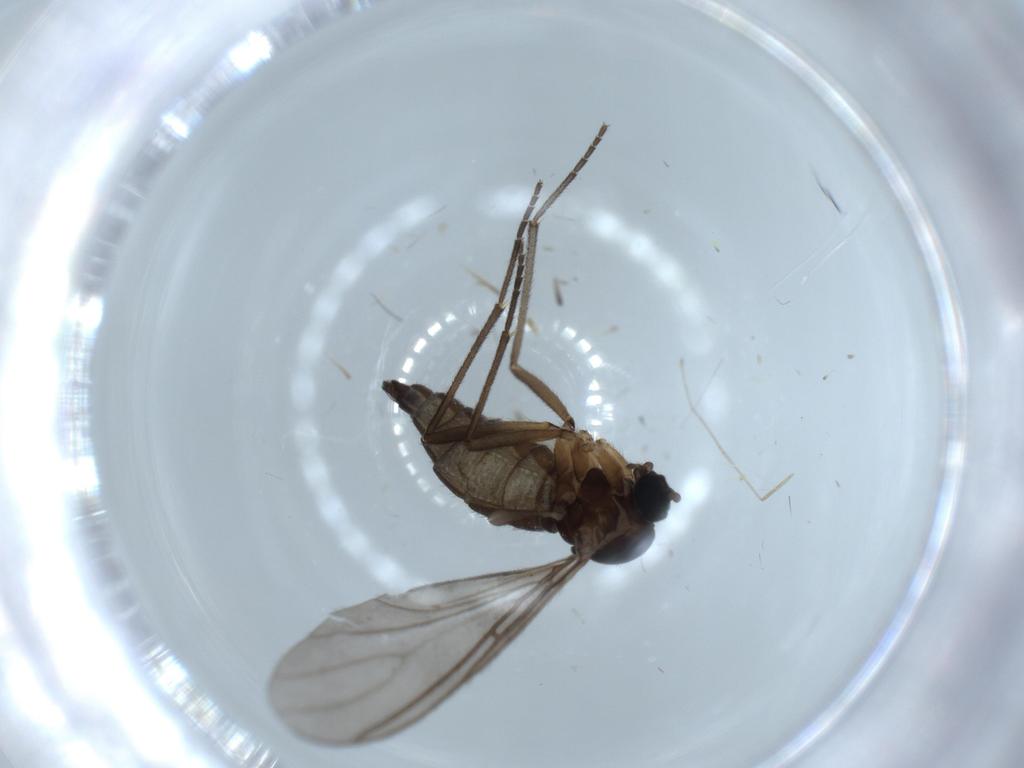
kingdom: Animalia
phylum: Arthropoda
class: Insecta
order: Diptera
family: Sciaridae
